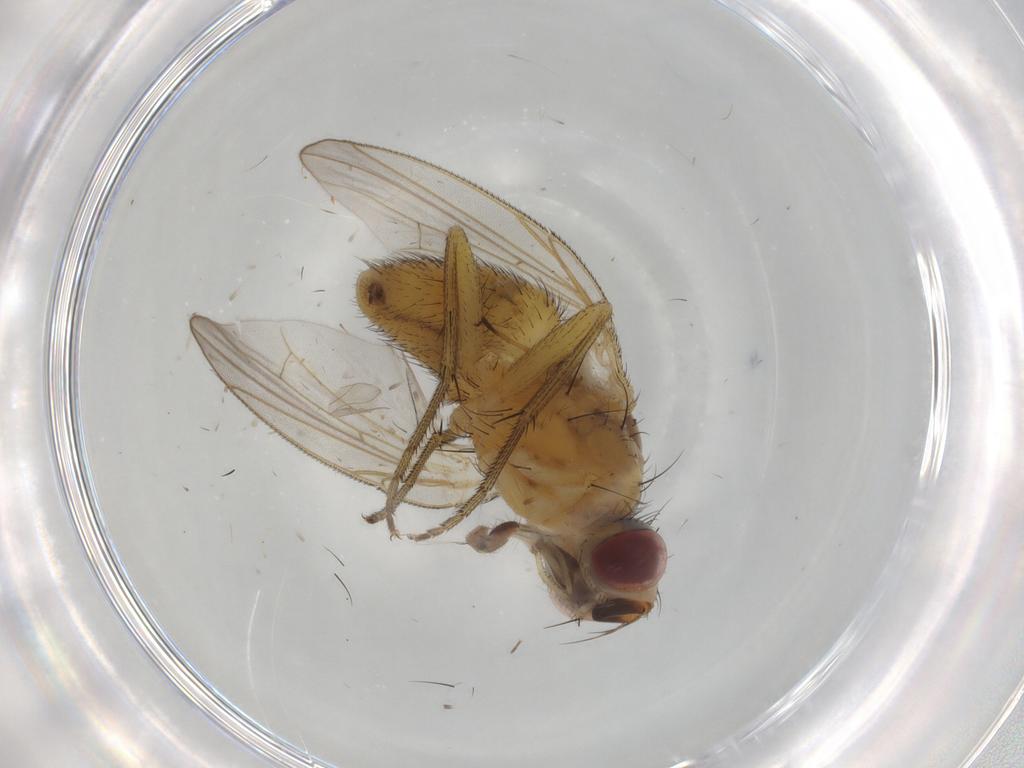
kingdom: Animalia
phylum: Arthropoda
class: Insecta
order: Diptera
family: Muscidae
